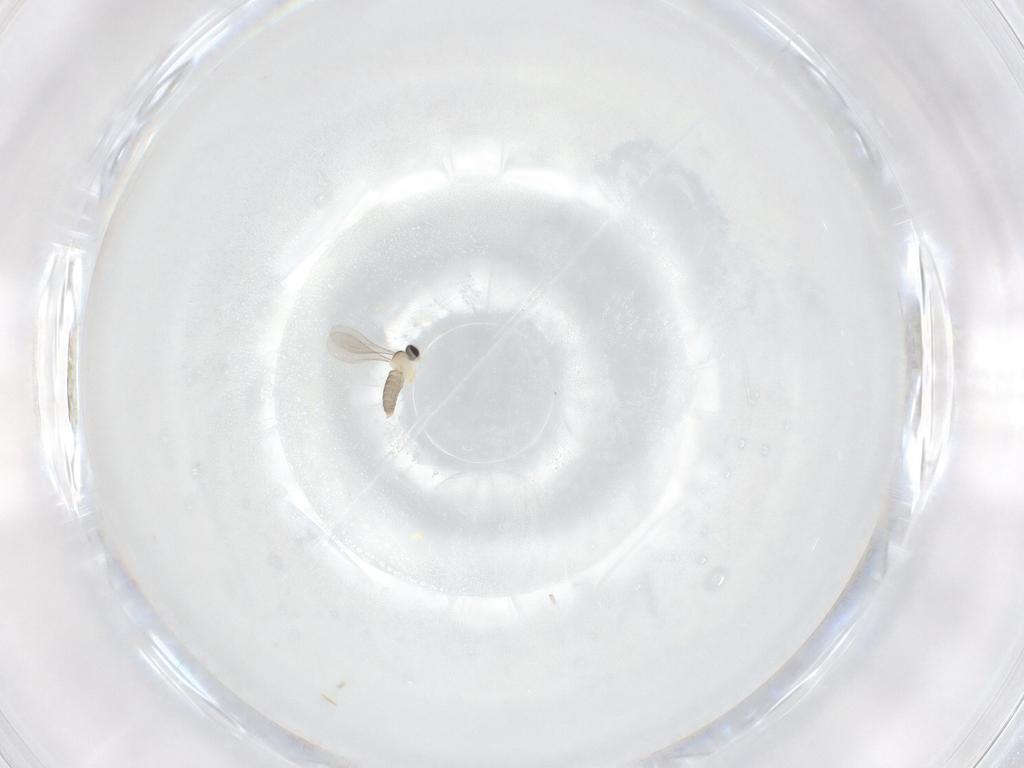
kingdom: Animalia
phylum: Arthropoda
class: Insecta
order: Diptera
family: Cecidomyiidae
